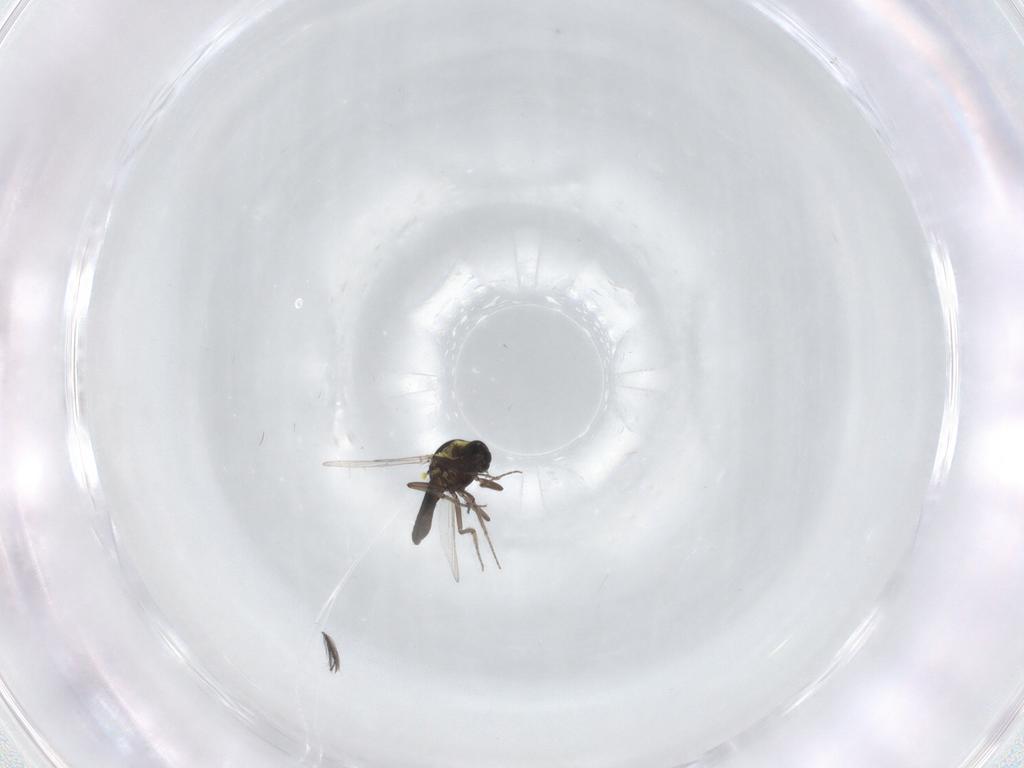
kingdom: Animalia
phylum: Arthropoda
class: Insecta
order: Diptera
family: Ceratopogonidae
